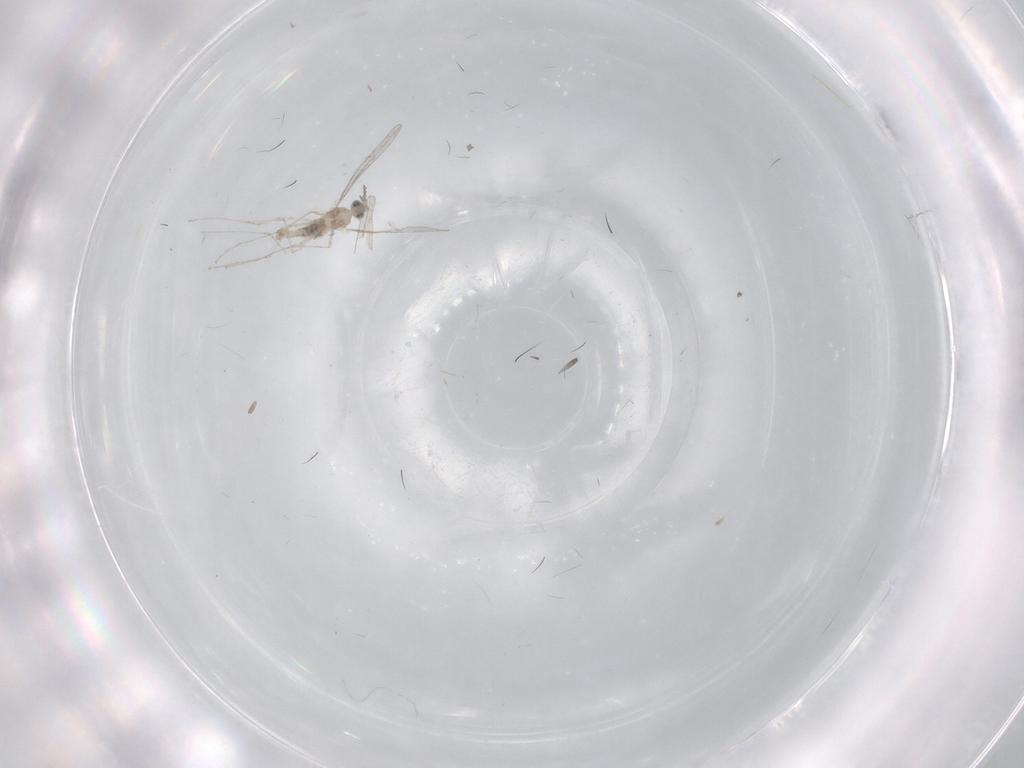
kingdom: Animalia
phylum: Arthropoda
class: Insecta
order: Diptera
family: Cecidomyiidae
